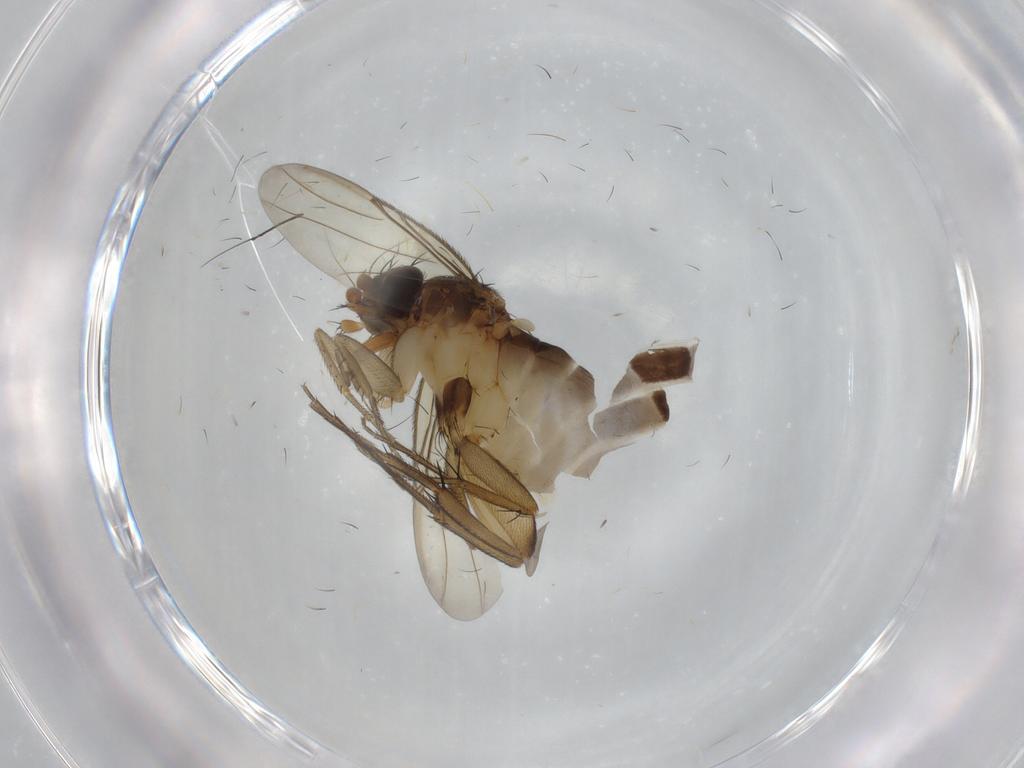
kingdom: Animalia
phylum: Arthropoda
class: Insecta
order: Diptera
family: Phoridae
